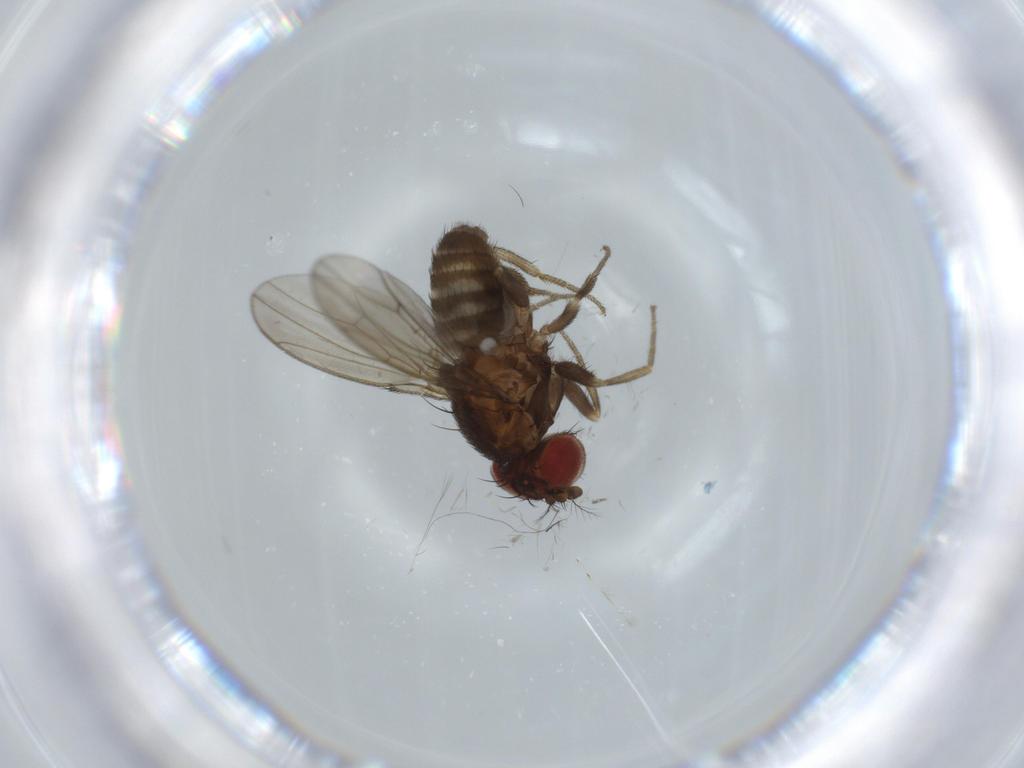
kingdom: Animalia
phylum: Arthropoda
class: Insecta
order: Diptera
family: Drosophilidae
